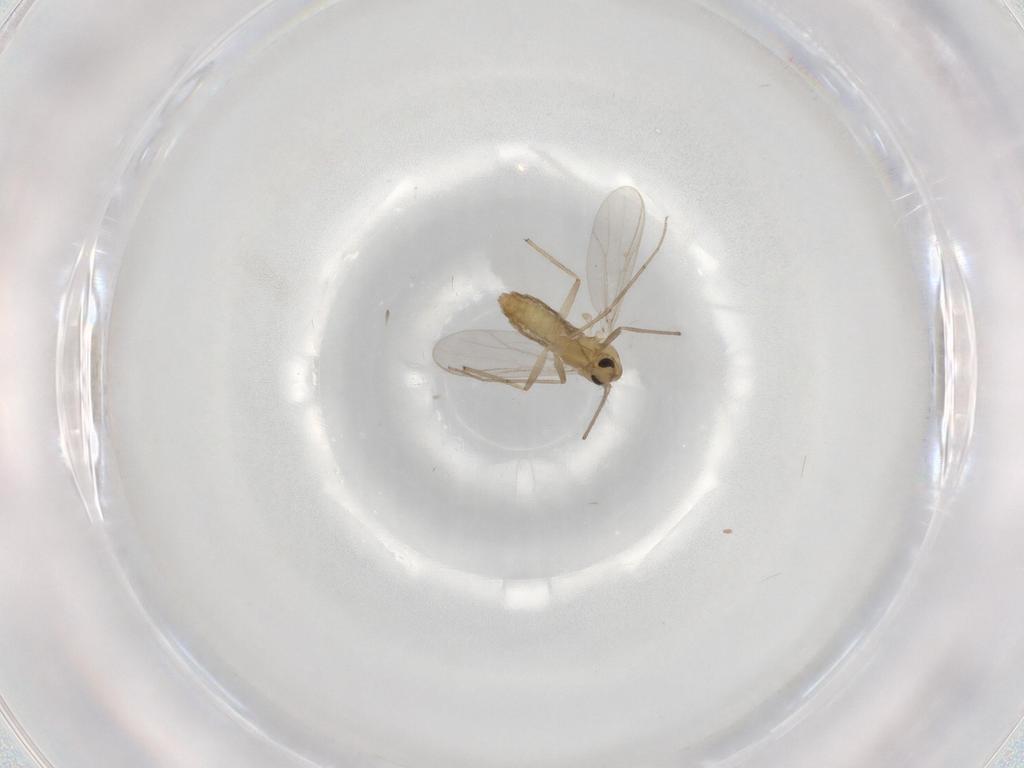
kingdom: Animalia
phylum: Arthropoda
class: Insecta
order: Diptera
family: Chironomidae
